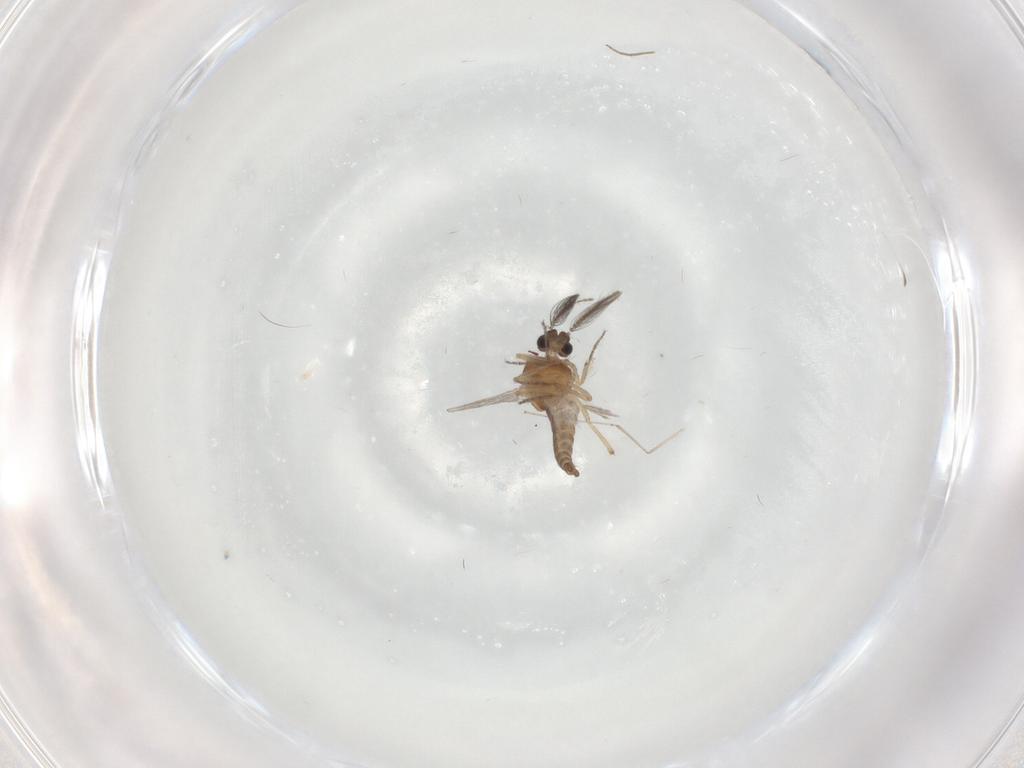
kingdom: Animalia
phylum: Arthropoda
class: Insecta
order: Diptera
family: Ceratopogonidae
